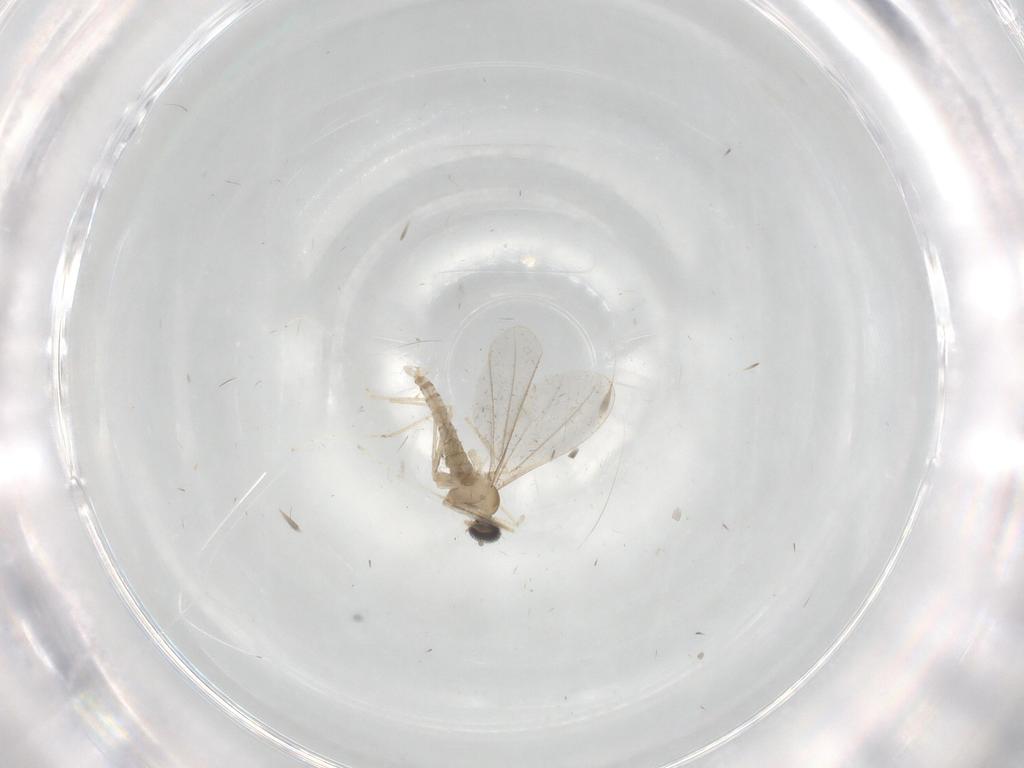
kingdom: Animalia
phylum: Arthropoda
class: Insecta
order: Diptera
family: Cecidomyiidae
